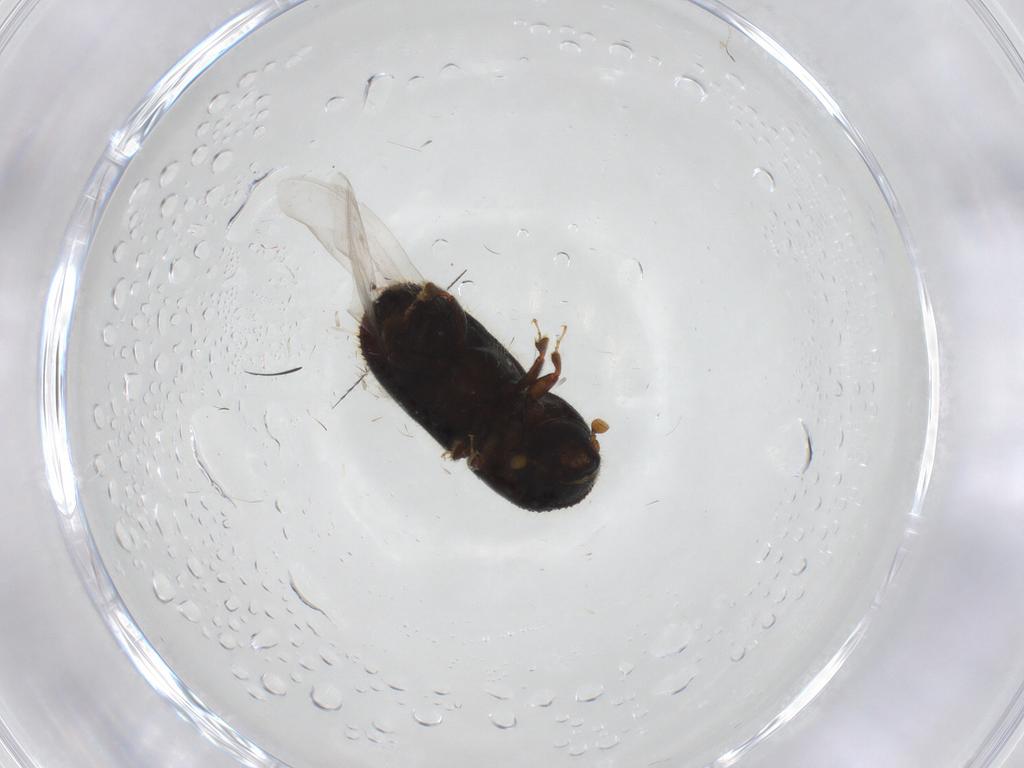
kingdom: Animalia
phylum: Arthropoda
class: Insecta
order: Coleoptera
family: Curculionidae
